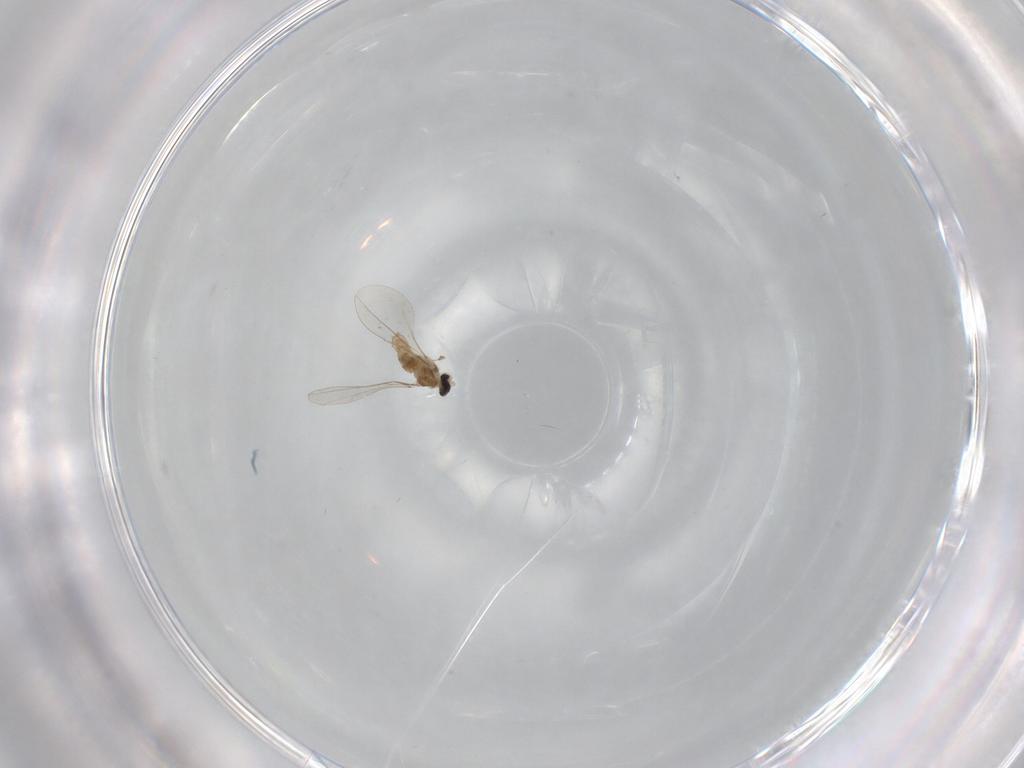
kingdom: Animalia
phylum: Arthropoda
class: Insecta
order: Diptera
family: Cecidomyiidae
